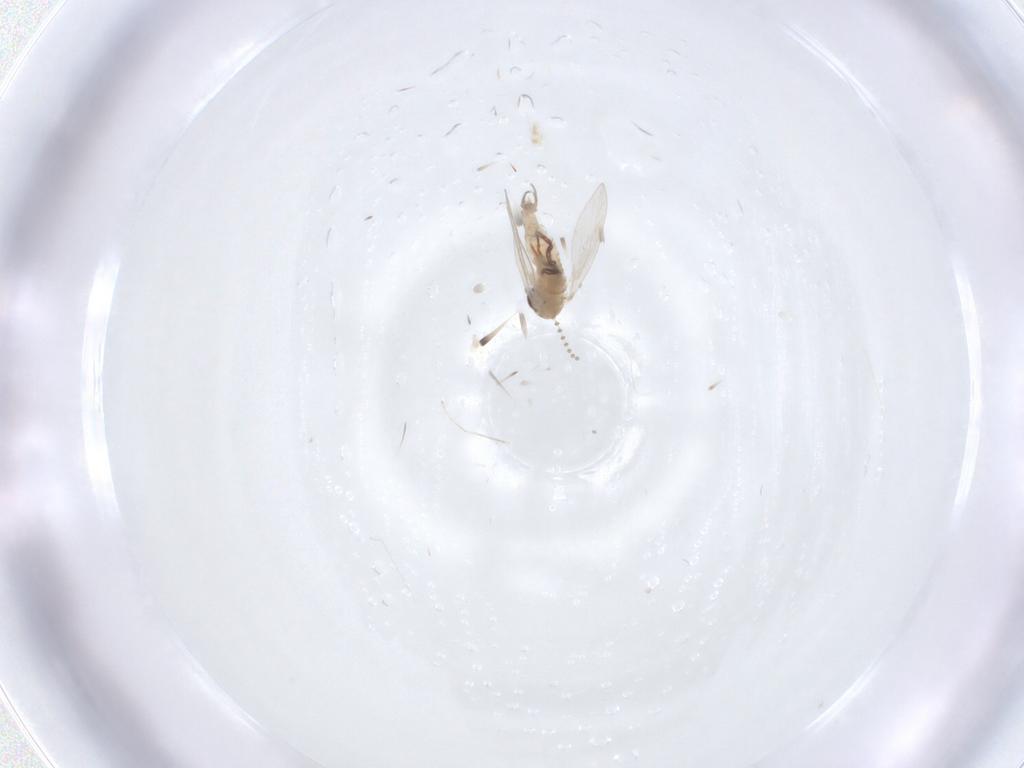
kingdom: Animalia
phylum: Arthropoda
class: Insecta
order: Diptera
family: Psychodidae
